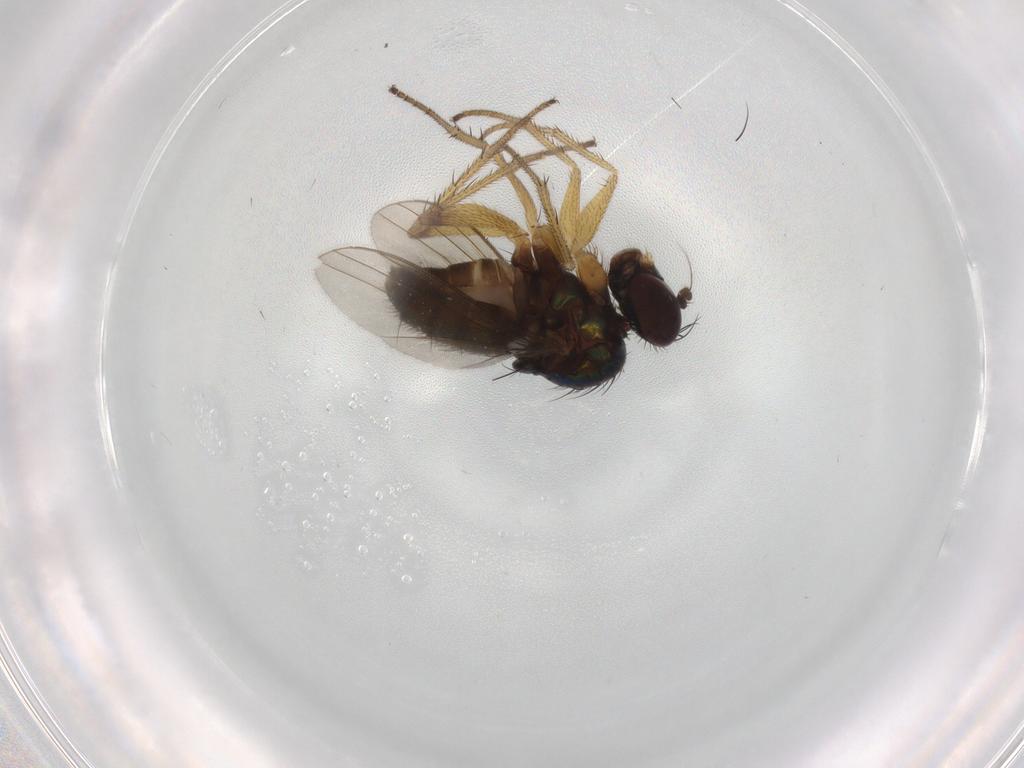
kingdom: Animalia
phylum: Arthropoda
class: Insecta
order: Diptera
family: Dolichopodidae
